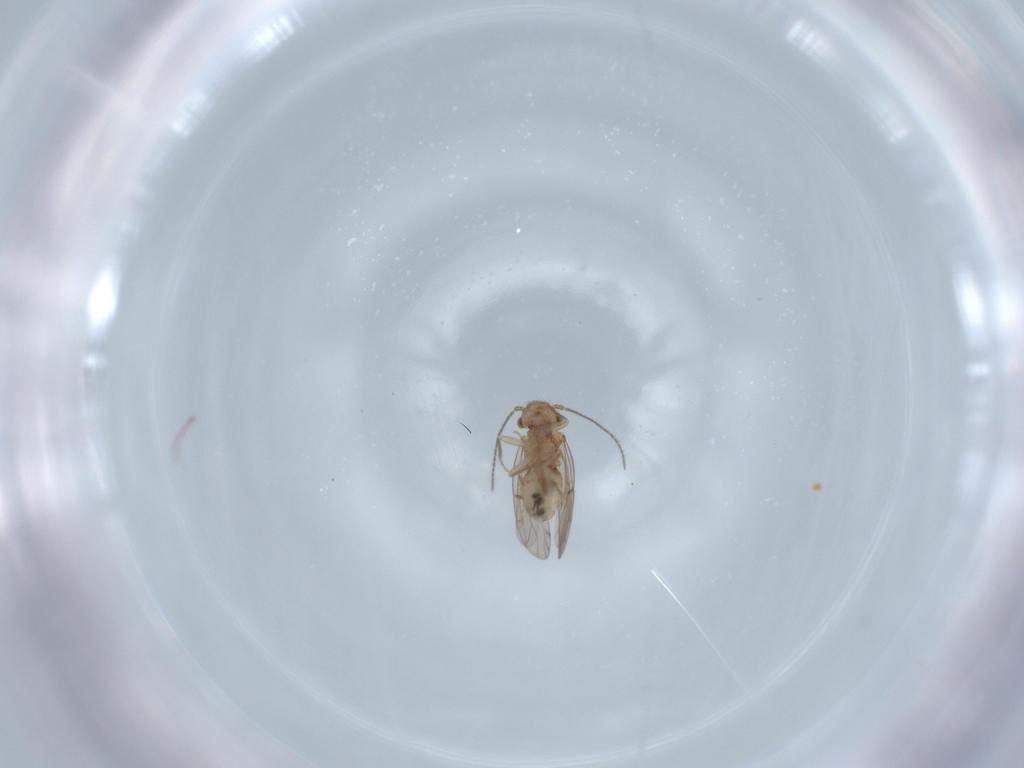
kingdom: Animalia
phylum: Arthropoda
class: Insecta
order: Psocodea
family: Ectopsocidae
